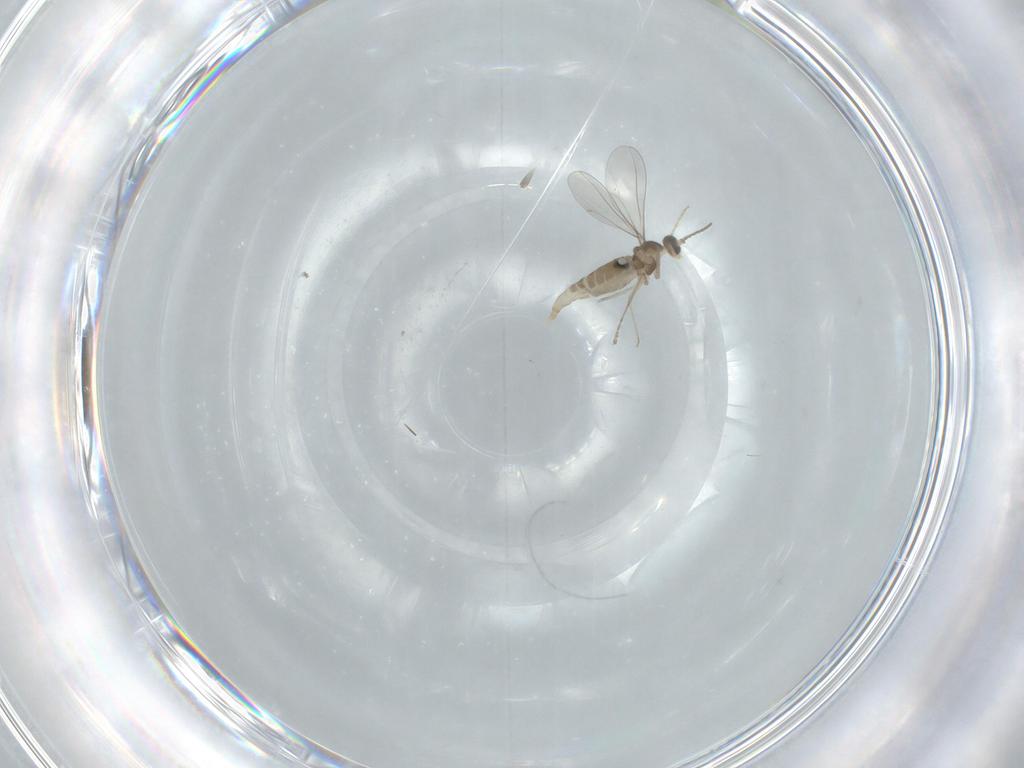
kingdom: Animalia
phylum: Arthropoda
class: Insecta
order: Diptera
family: Cecidomyiidae
